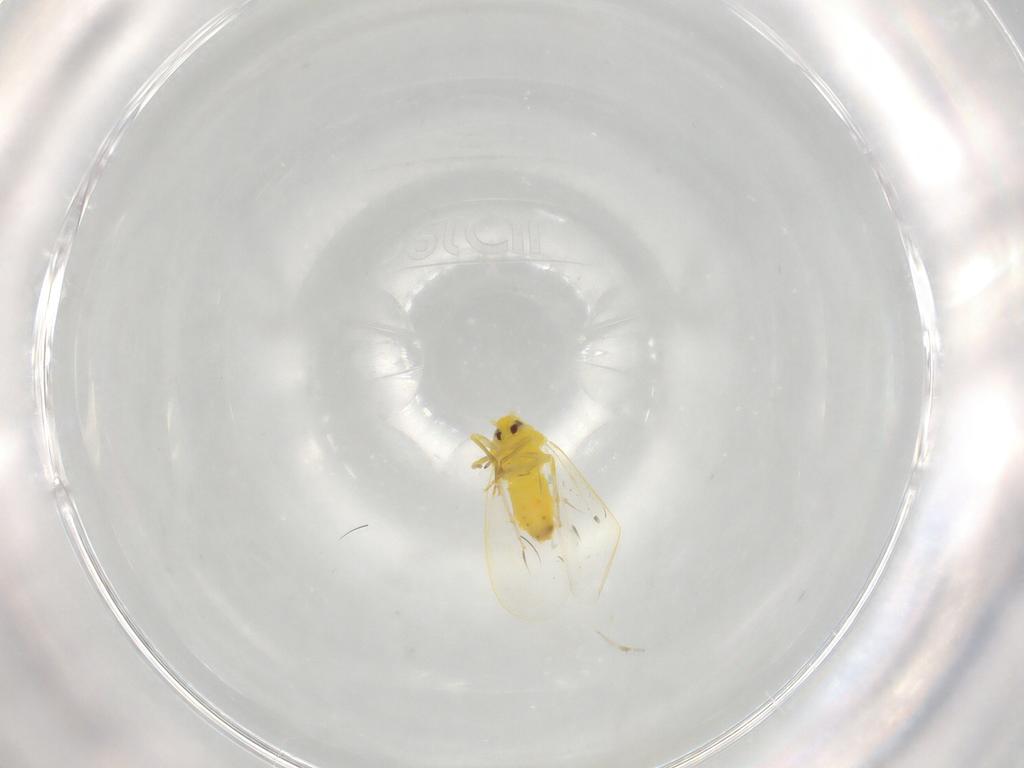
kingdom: Animalia
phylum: Arthropoda
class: Insecta
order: Hemiptera
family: Aleyrodidae
